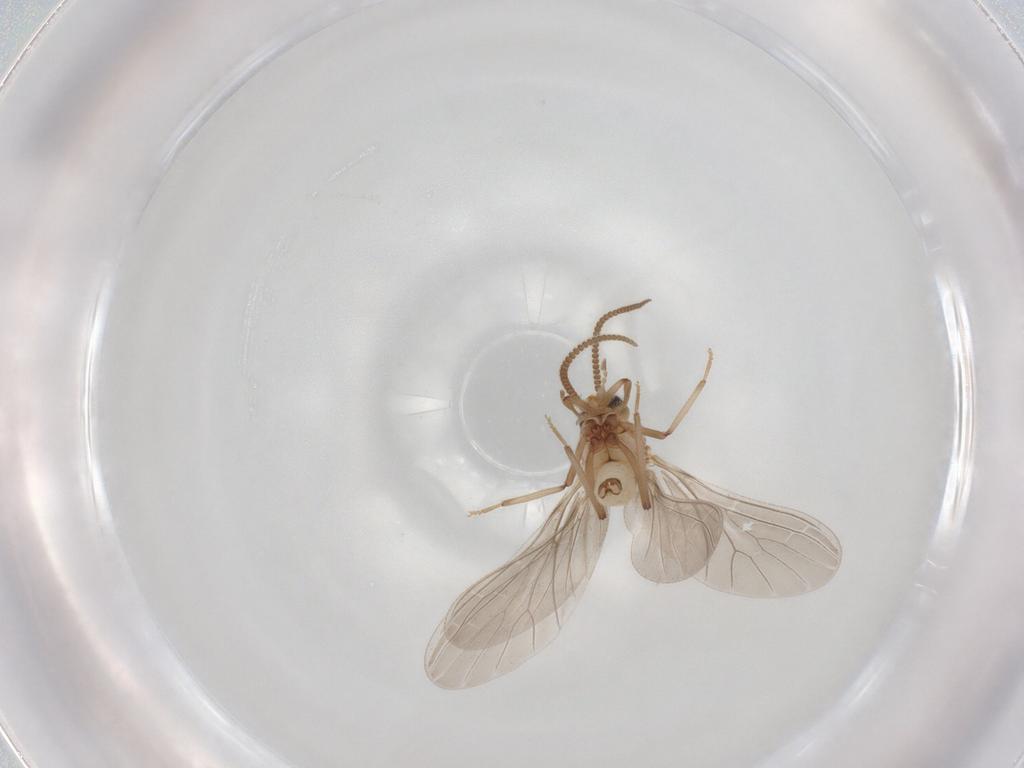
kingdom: Animalia
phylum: Arthropoda
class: Insecta
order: Neuroptera
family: Coniopterygidae
